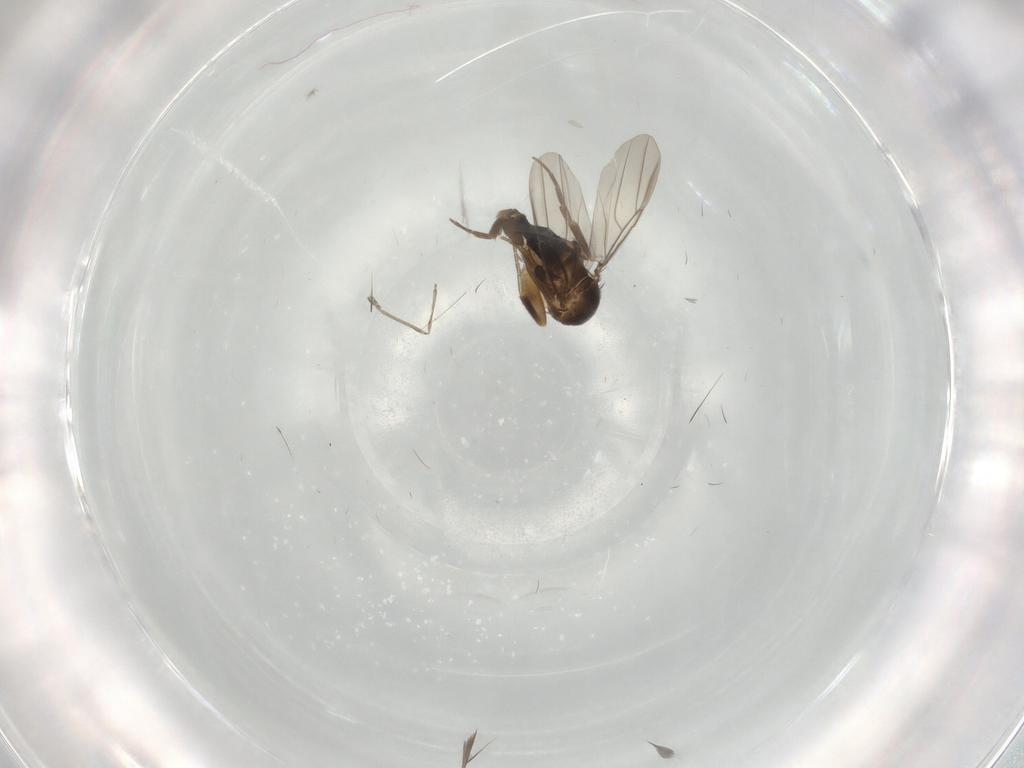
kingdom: Animalia
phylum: Arthropoda
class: Insecta
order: Diptera
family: Phoridae
